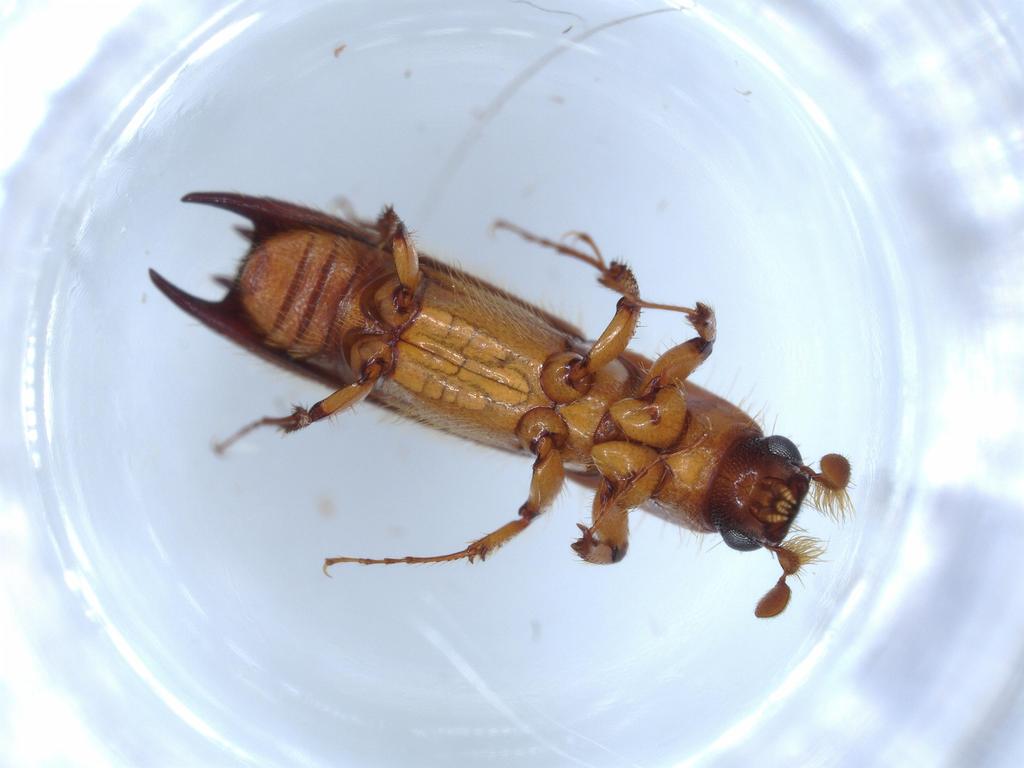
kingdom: Animalia
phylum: Arthropoda
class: Insecta
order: Coleoptera
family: Curculionidae
